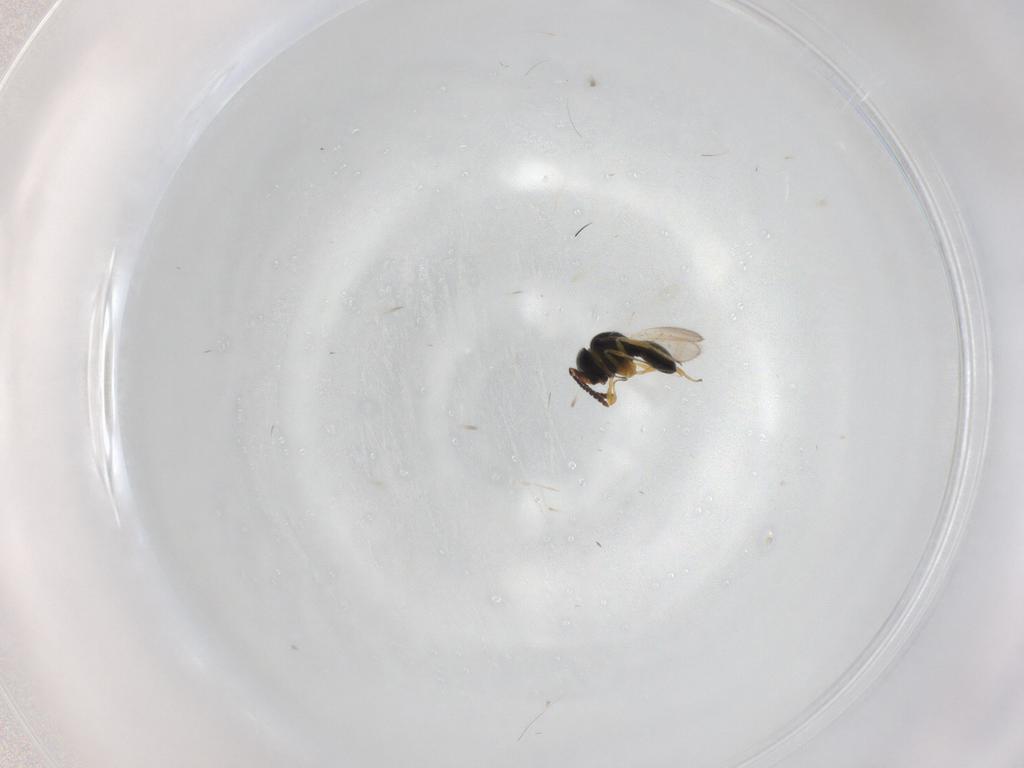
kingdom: Animalia
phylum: Arthropoda
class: Insecta
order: Hymenoptera
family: Scelionidae
